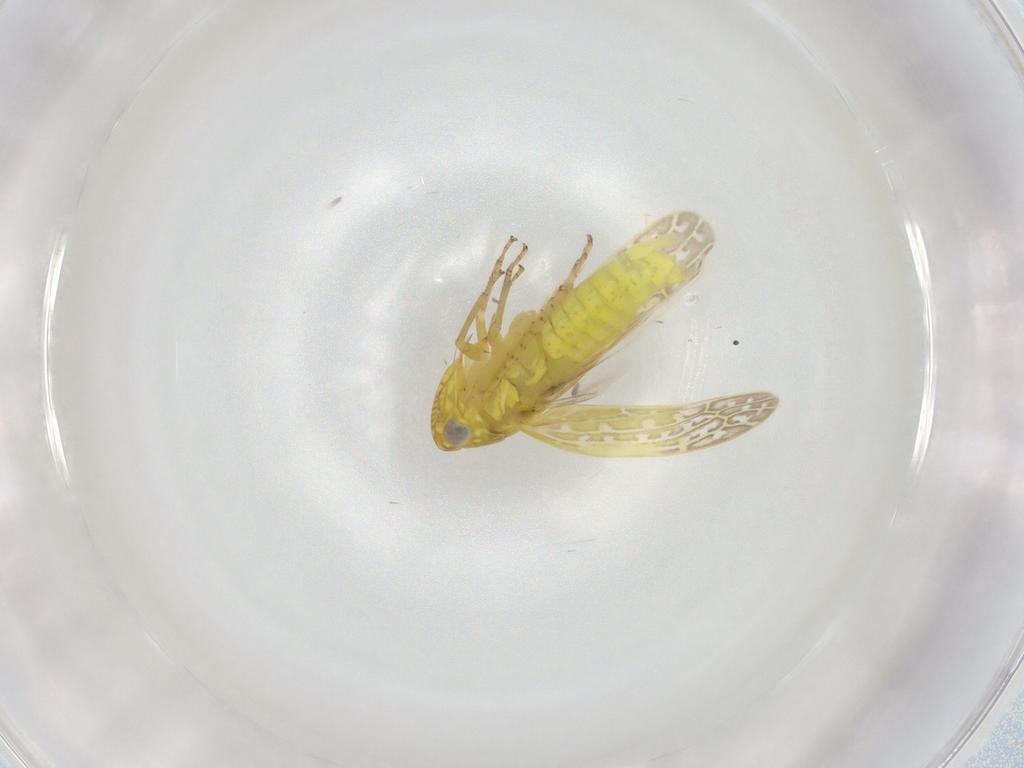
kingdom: Animalia
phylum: Arthropoda
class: Insecta
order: Hemiptera
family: Cicadellidae
